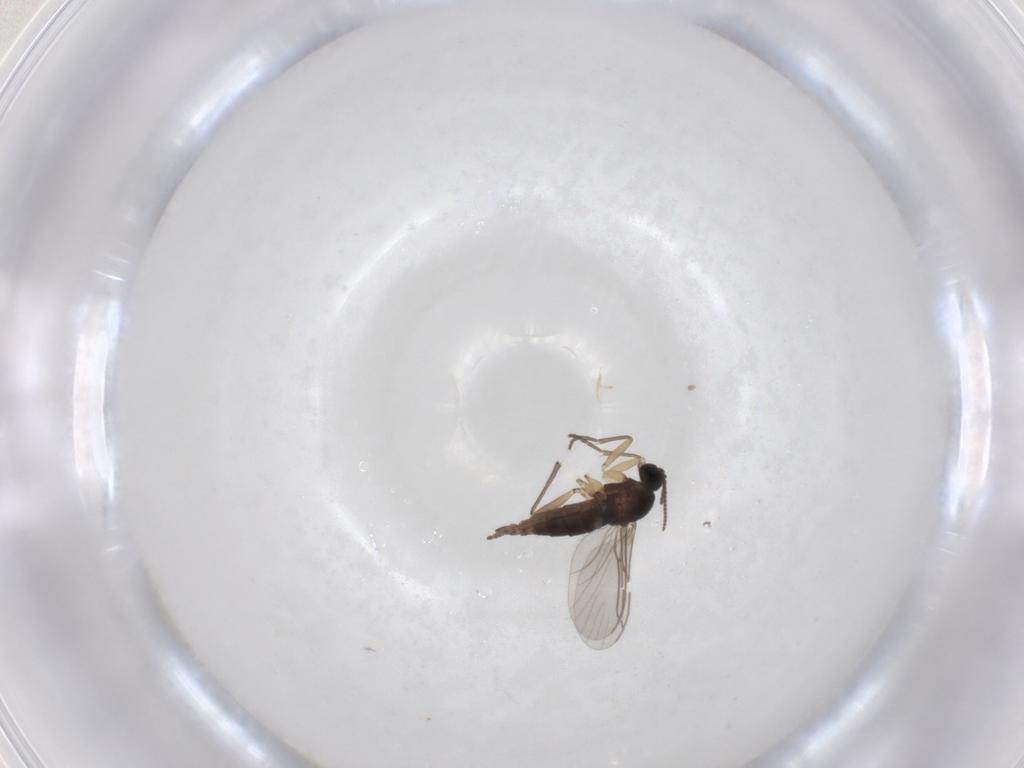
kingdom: Animalia
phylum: Arthropoda
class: Insecta
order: Diptera
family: Sciaridae
